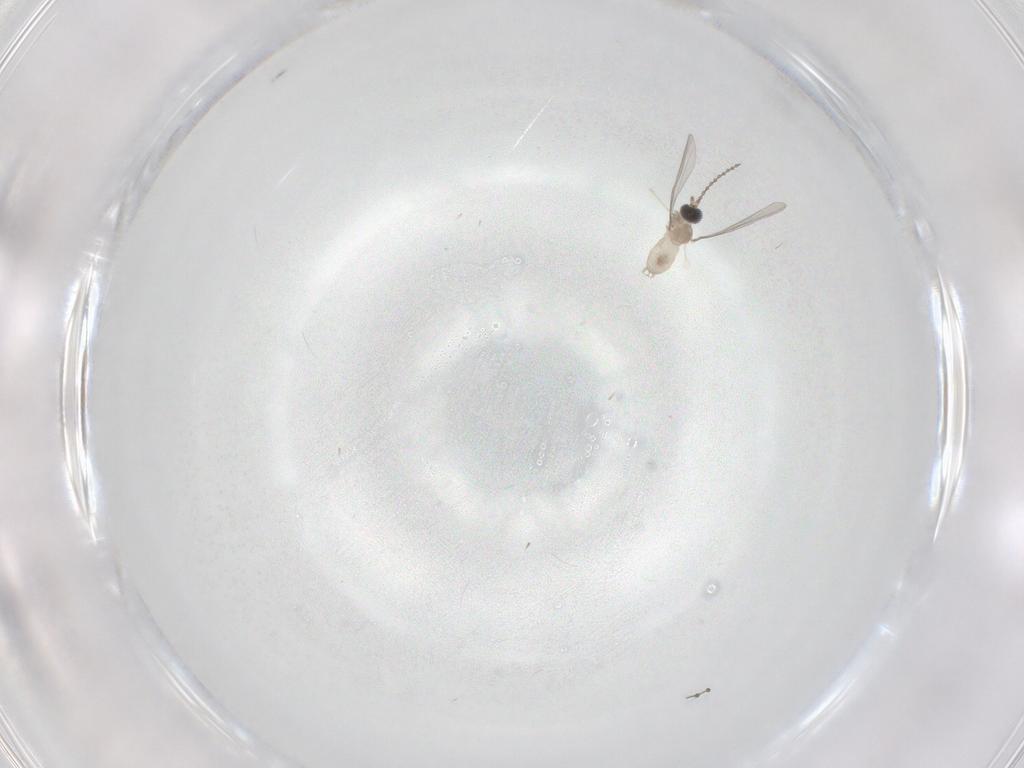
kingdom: Animalia
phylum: Arthropoda
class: Insecta
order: Diptera
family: Cecidomyiidae
